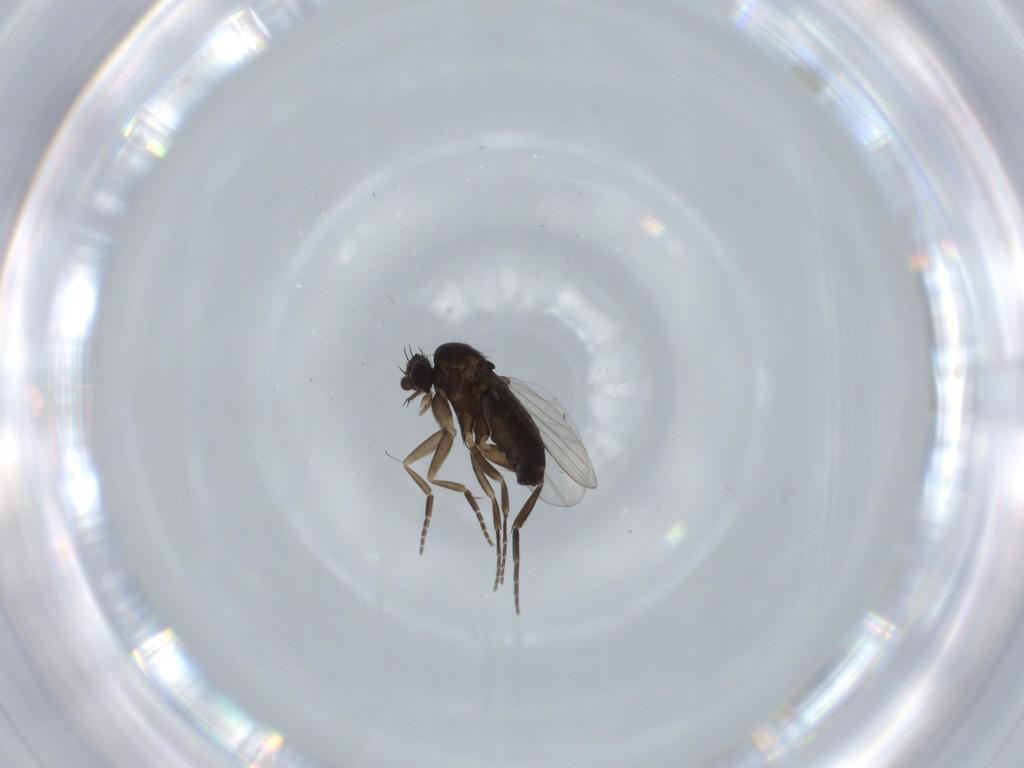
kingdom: Animalia
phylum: Arthropoda
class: Insecta
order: Diptera
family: Phoridae
